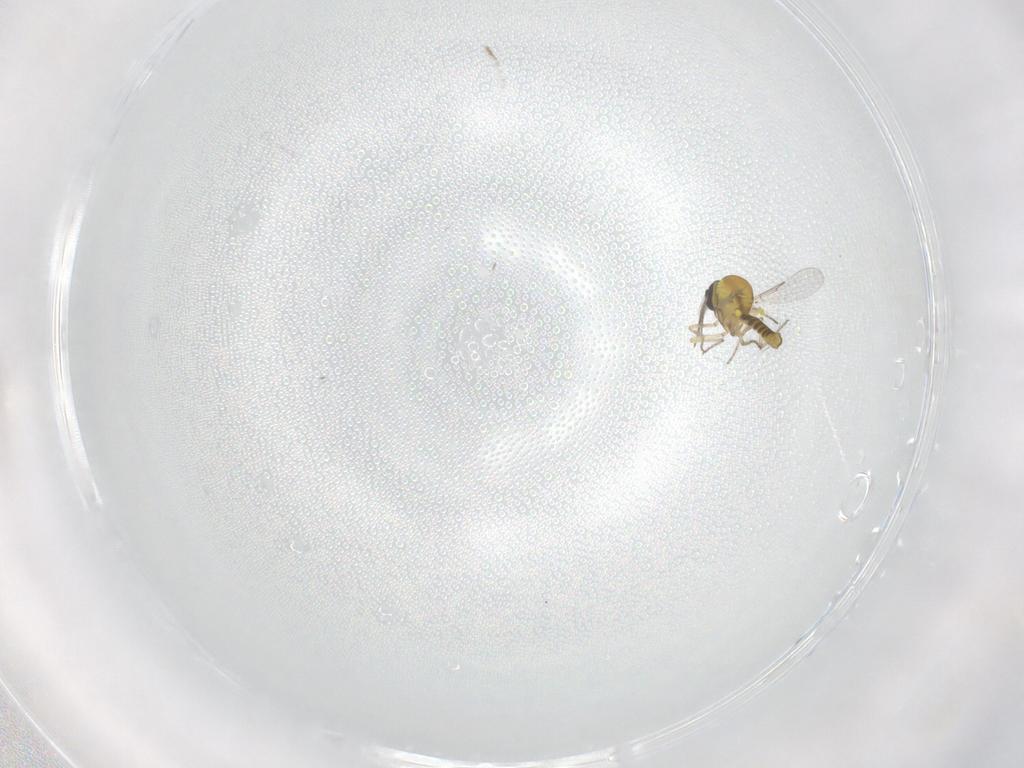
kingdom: Animalia
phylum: Arthropoda
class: Insecta
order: Diptera
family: Ceratopogonidae
